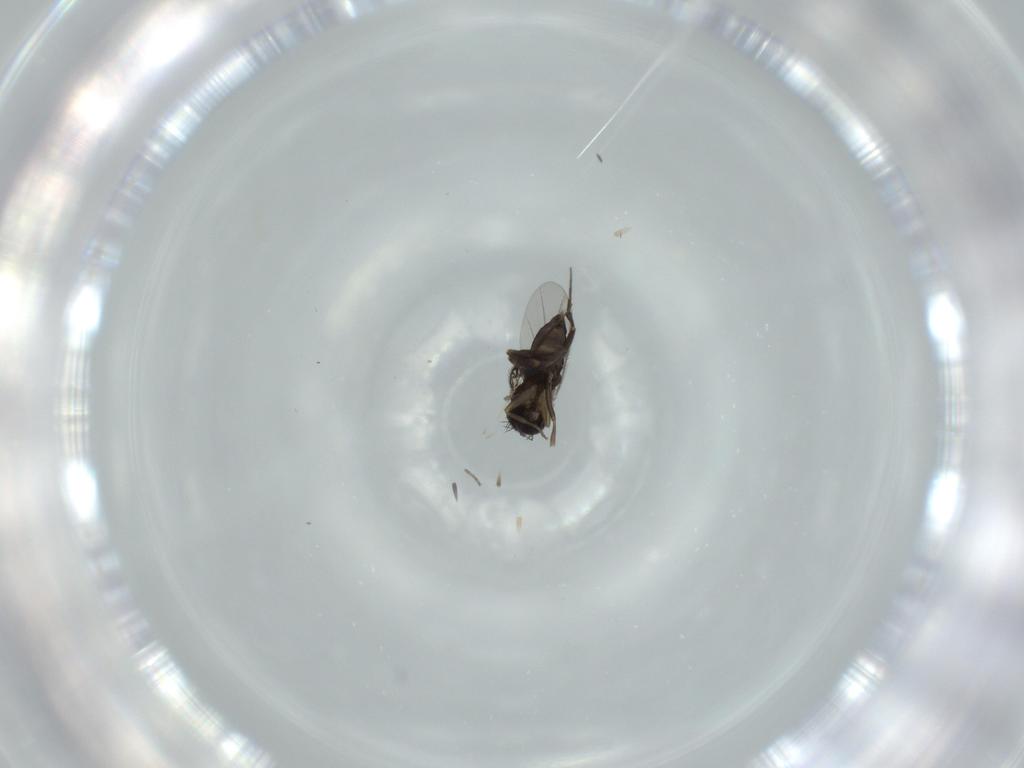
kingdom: Animalia
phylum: Arthropoda
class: Insecta
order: Diptera
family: Phoridae
